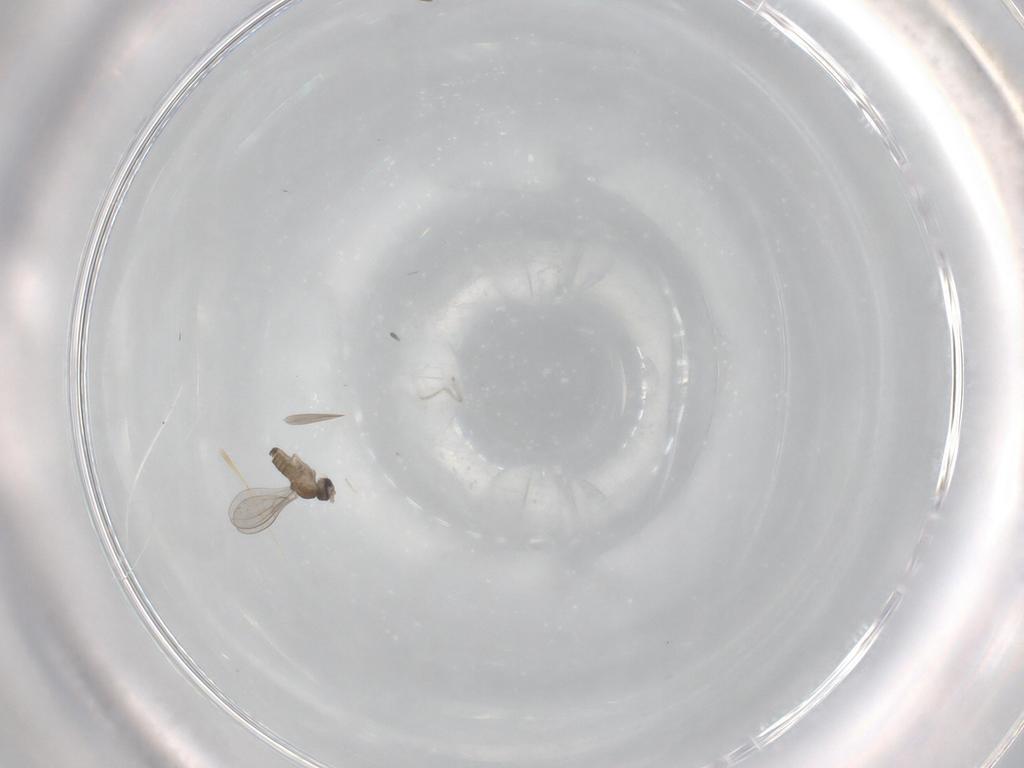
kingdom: Animalia
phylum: Arthropoda
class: Insecta
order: Diptera
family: Cecidomyiidae
